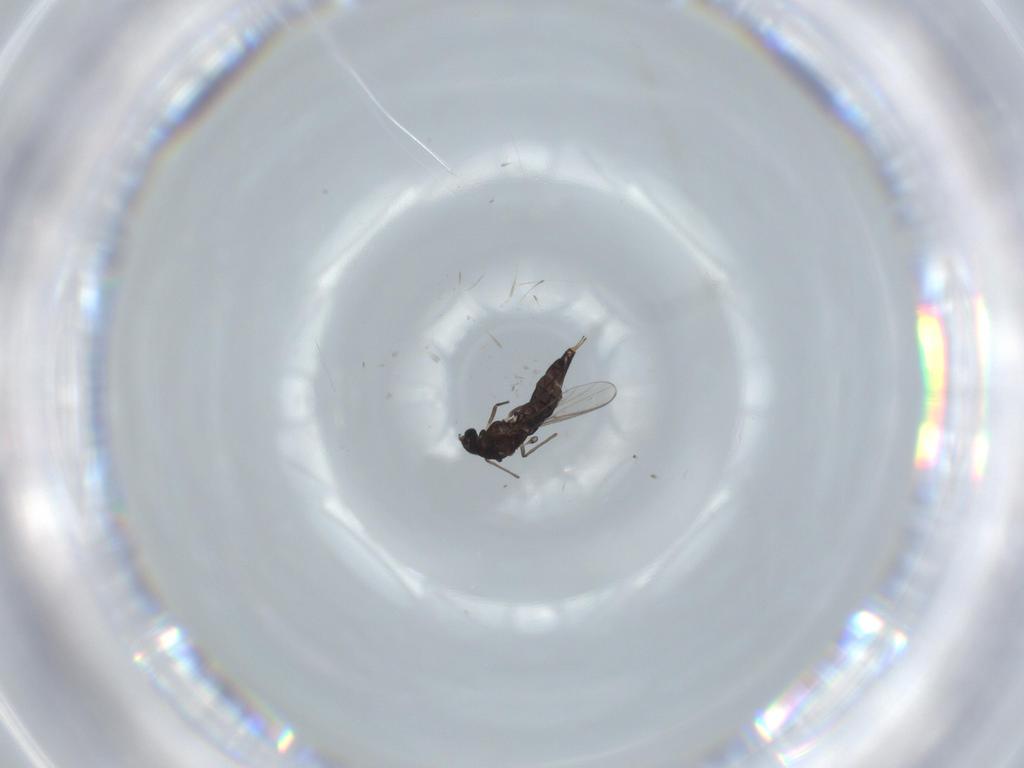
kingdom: Animalia
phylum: Arthropoda
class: Insecta
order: Diptera
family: Chironomidae
